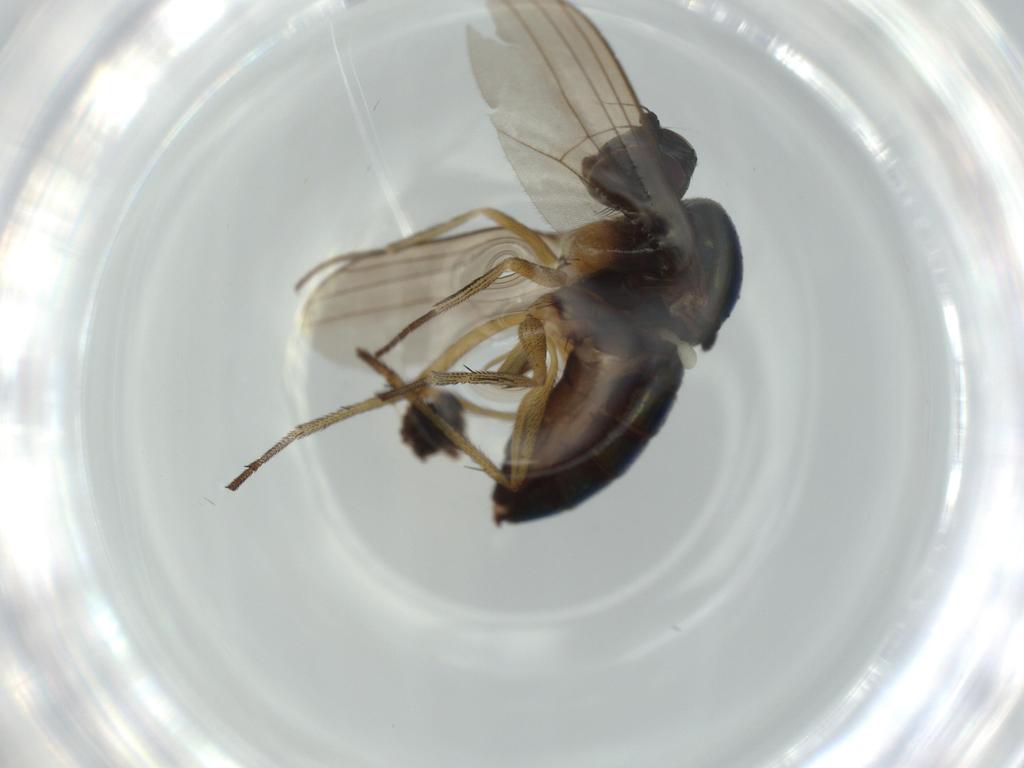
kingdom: Animalia
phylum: Arthropoda
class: Insecta
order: Diptera
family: Dolichopodidae
